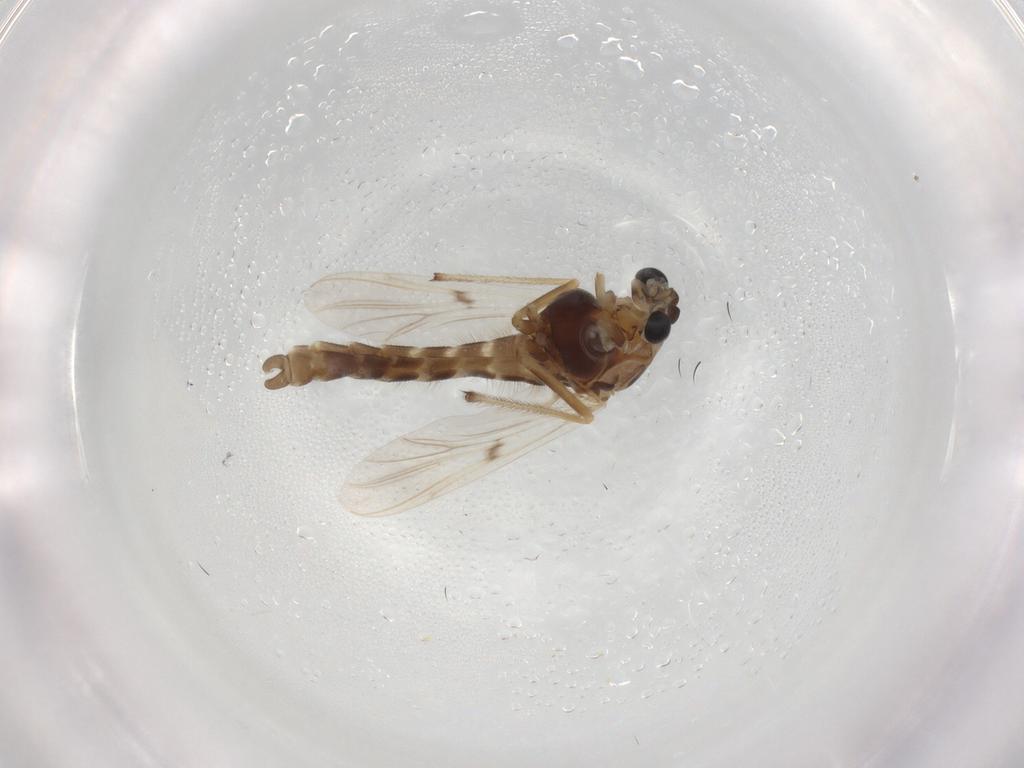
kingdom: Animalia
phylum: Arthropoda
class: Insecta
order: Diptera
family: Chironomidae
